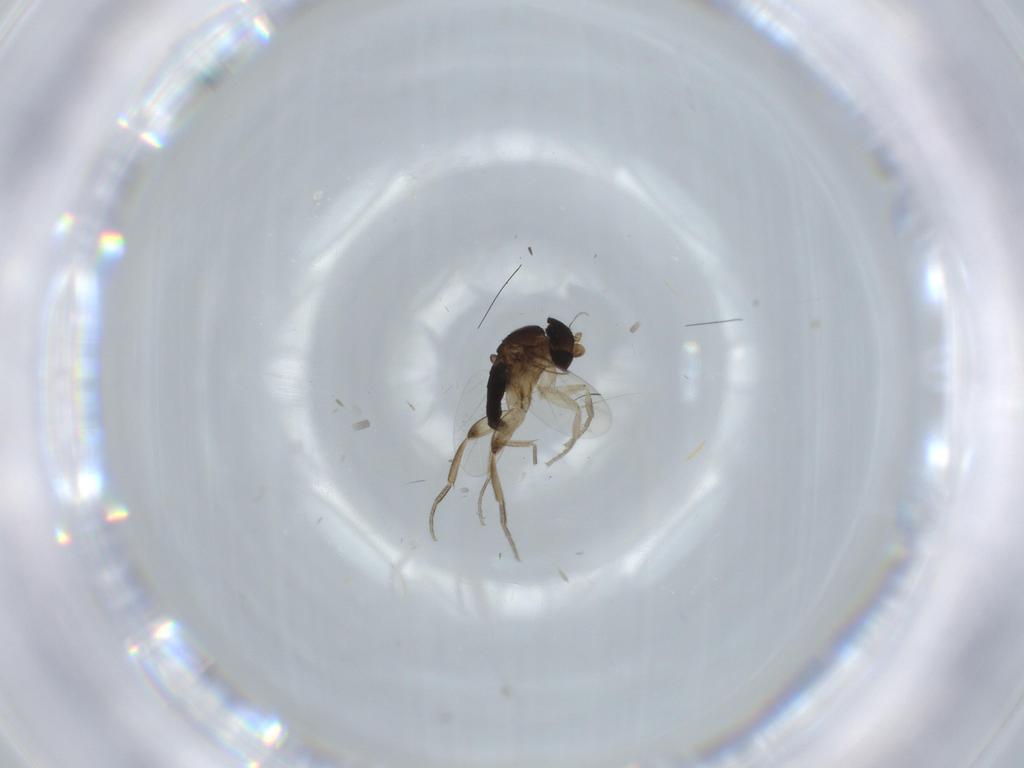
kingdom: Animalia
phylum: Arthropoda
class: Insecta
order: Diptera
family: Phoridae
